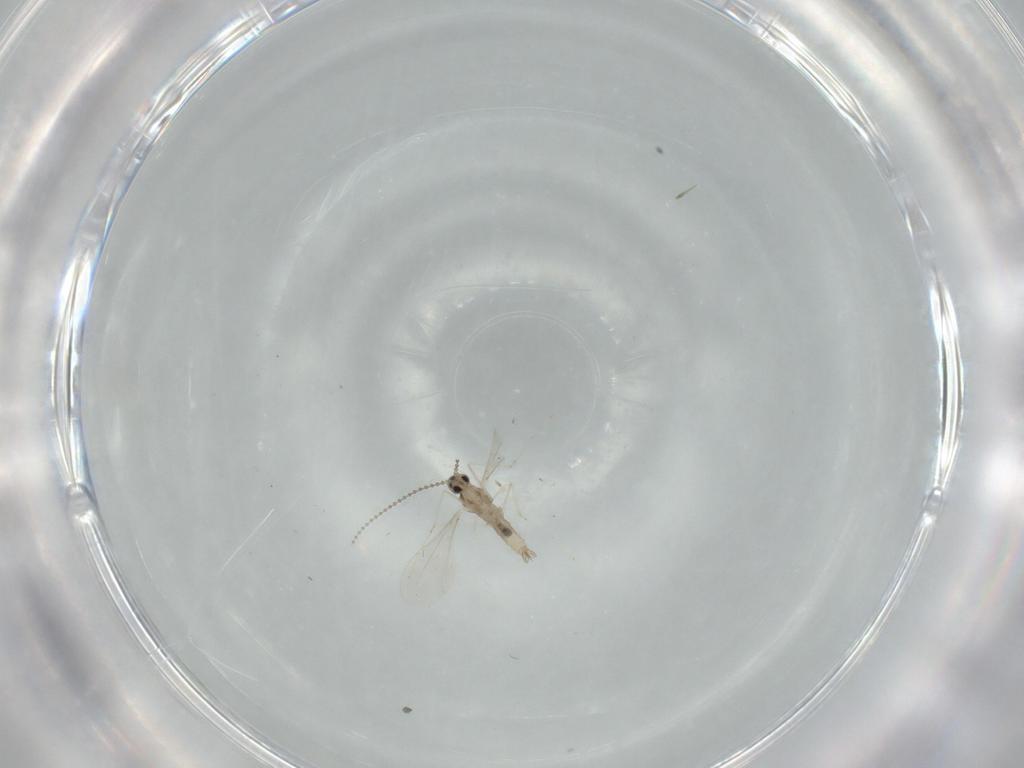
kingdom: Animalia
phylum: Arthropoda
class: Insecta
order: Diptera
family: Cecidomyiidae
